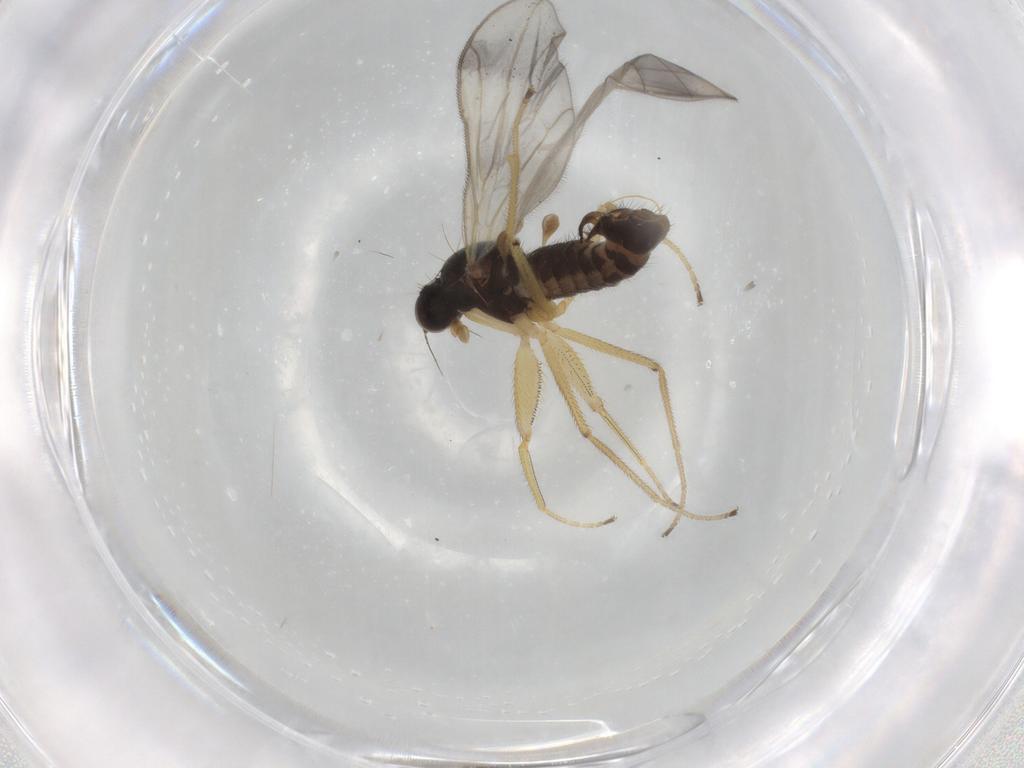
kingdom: Animalia
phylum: Arthropoda
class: Insecta
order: Diptera
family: Empididae
